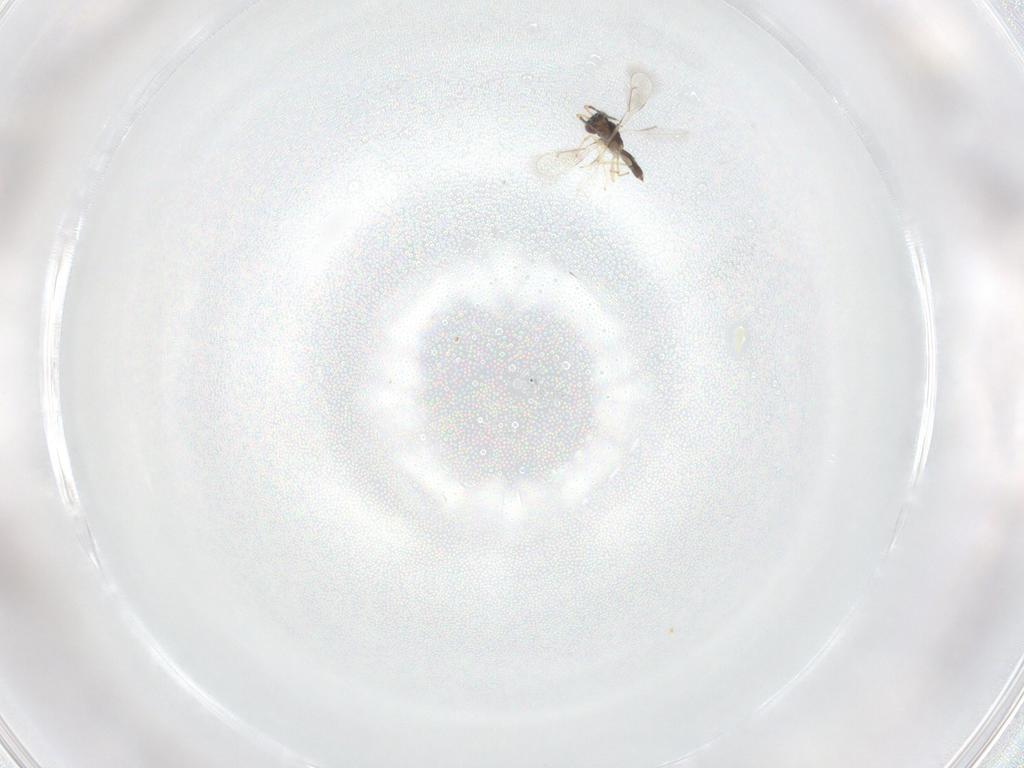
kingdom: Animalia
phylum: Arthropoda
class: Insecta
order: Hymenoptera
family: Eulophidae
